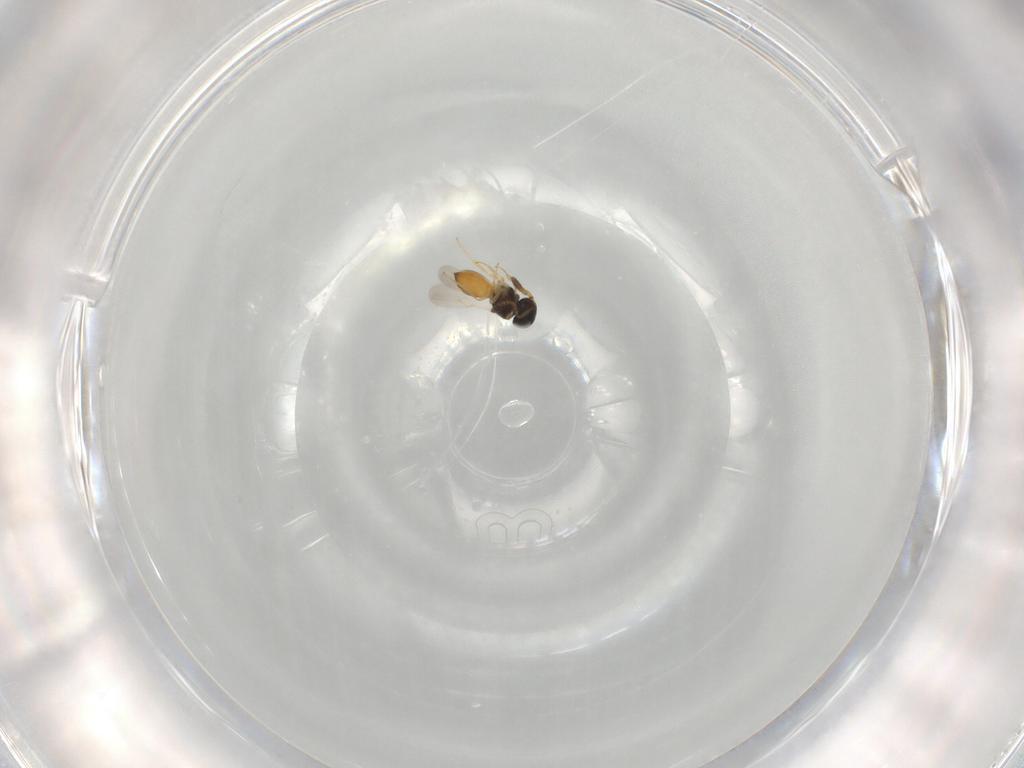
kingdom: Animalia
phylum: Arthropoda
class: Insecta
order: Hymenoptera
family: Scelionidae
